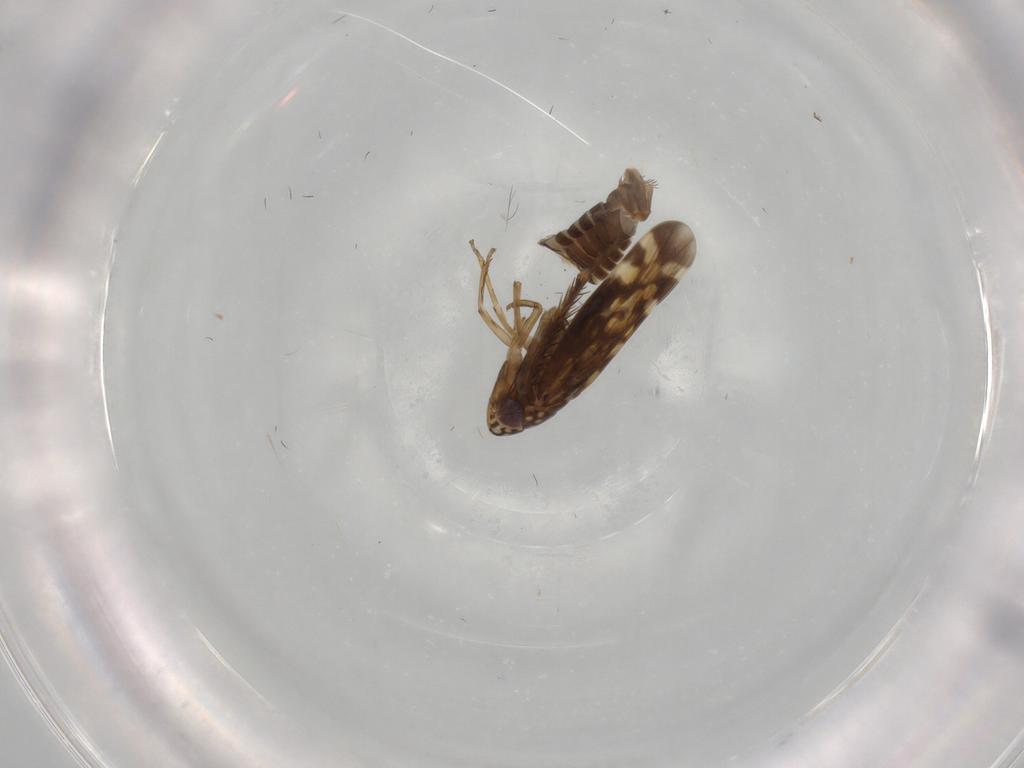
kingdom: Animalia
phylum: Arthropoda
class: Insecta
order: Hemiptera
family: Cicadellidae
